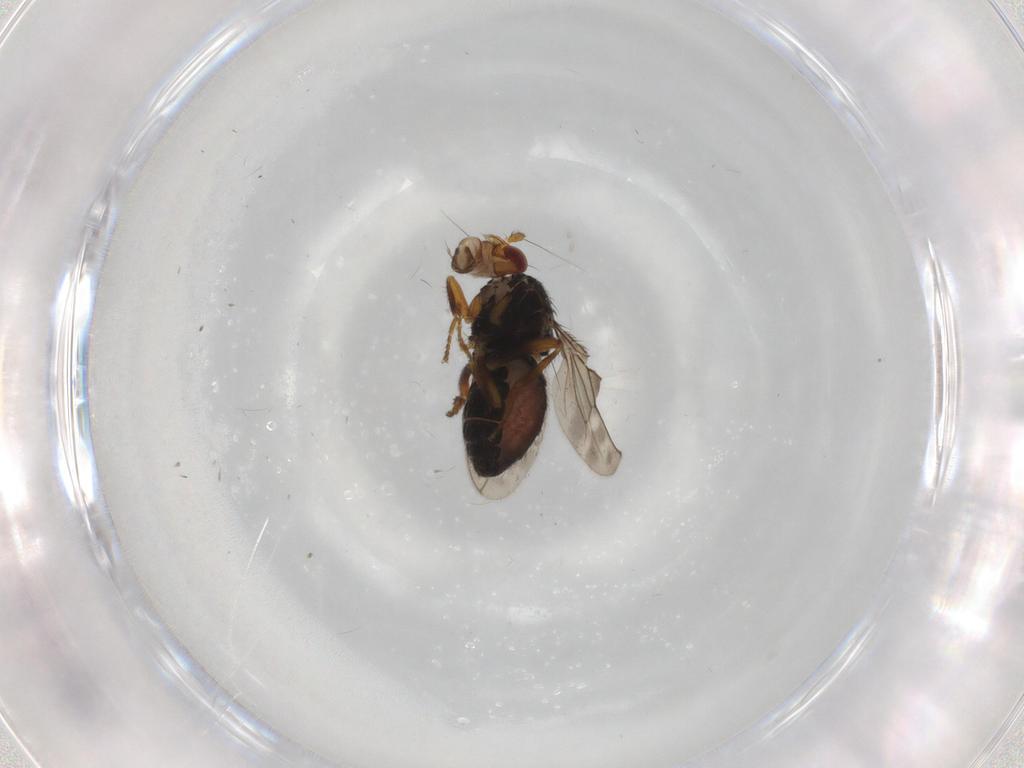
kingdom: Animalia
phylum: Arthropoda
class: Insecta
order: Diptera
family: Sphaeroceridae
